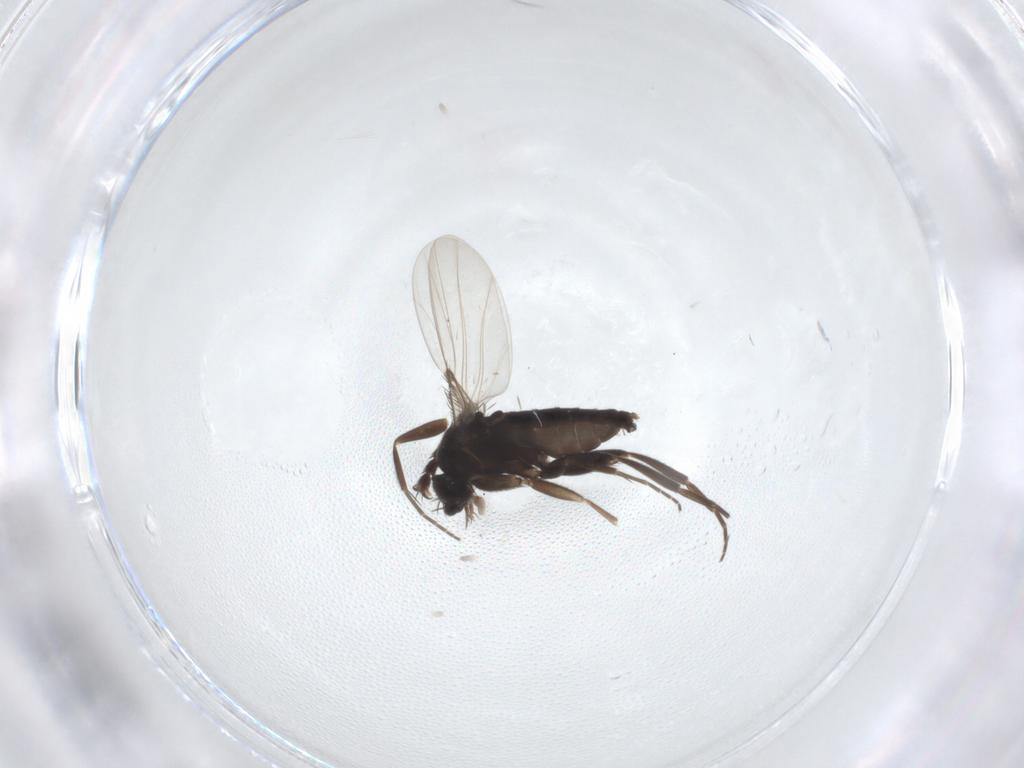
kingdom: Animalia
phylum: Arthropoda
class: Insecta
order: Diptera
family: Phoridae
